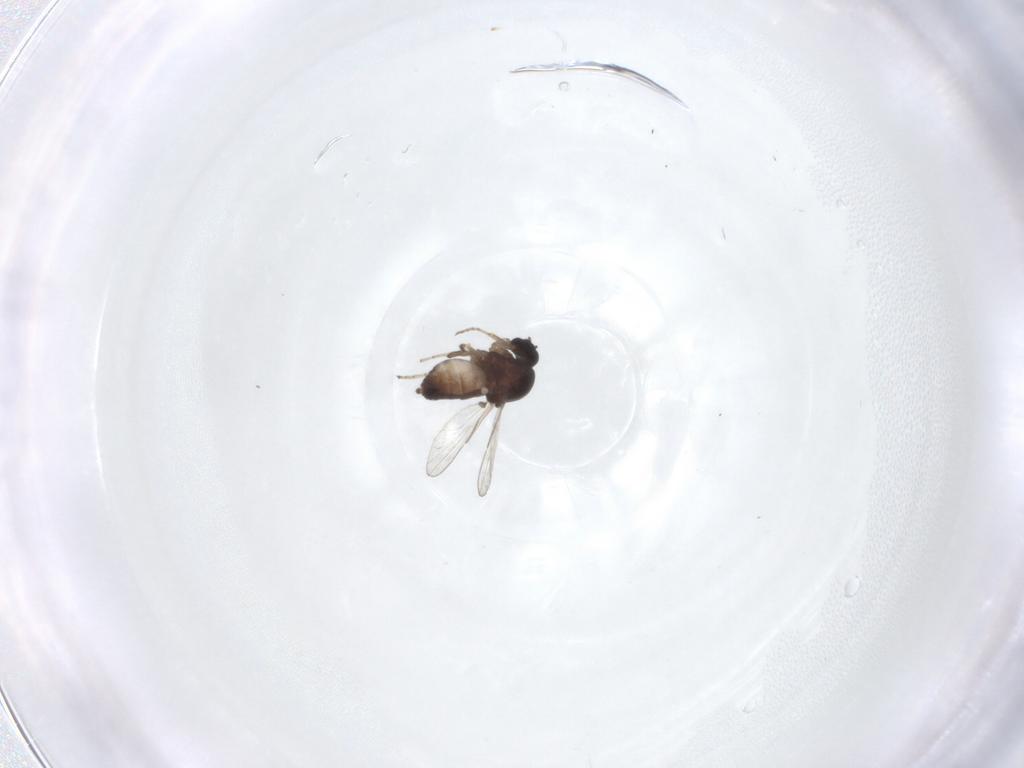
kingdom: Animalia
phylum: Arthropoda
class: Insecta
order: Diptera
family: Ceratopogonidae
